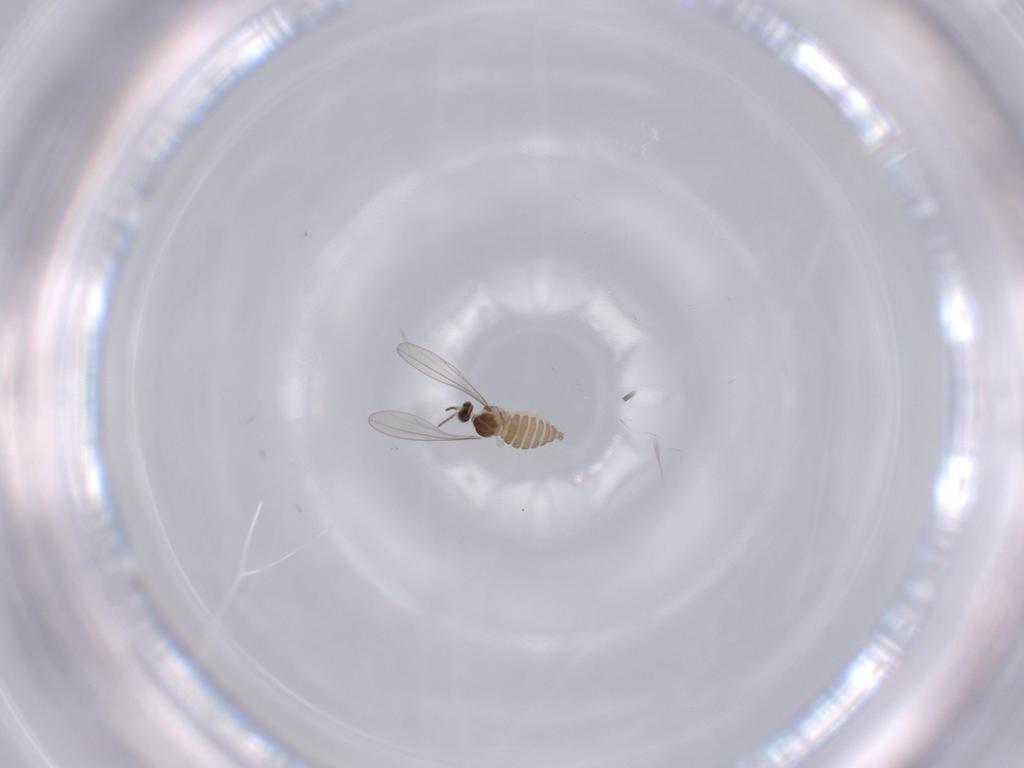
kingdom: Animalia
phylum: Arthropoda
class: Insecta
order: Diptera
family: Cecidomyiidae
